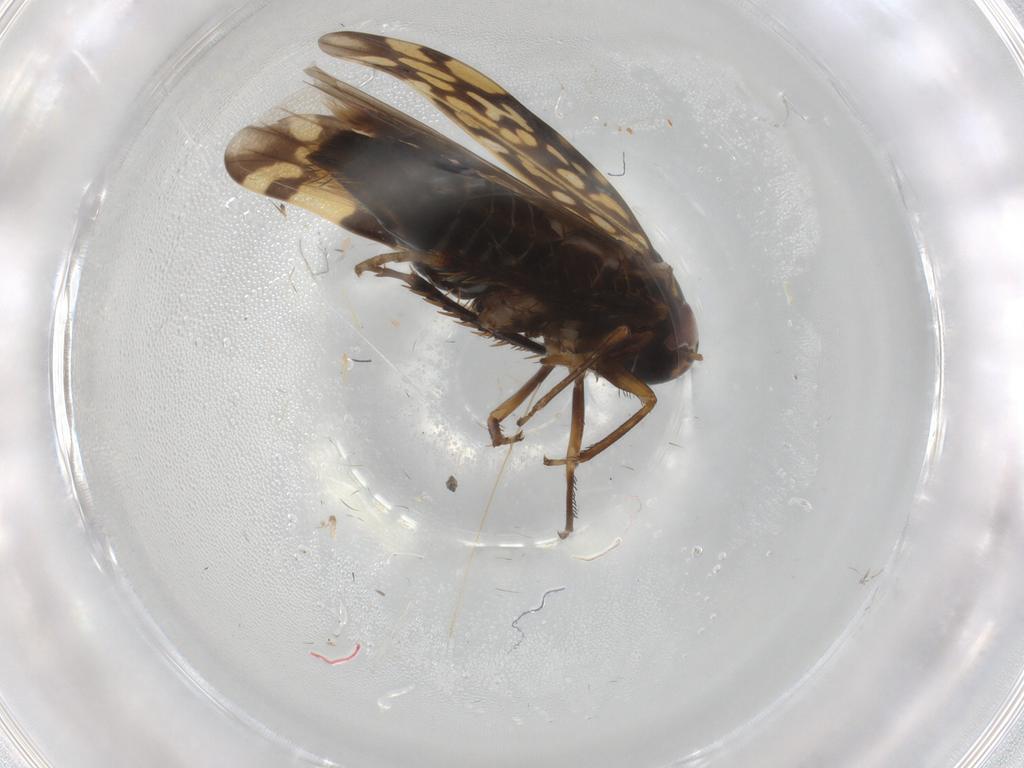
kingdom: Animalia
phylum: Arthropoda
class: Insecta
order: Hemiptera
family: Cicadellidae
